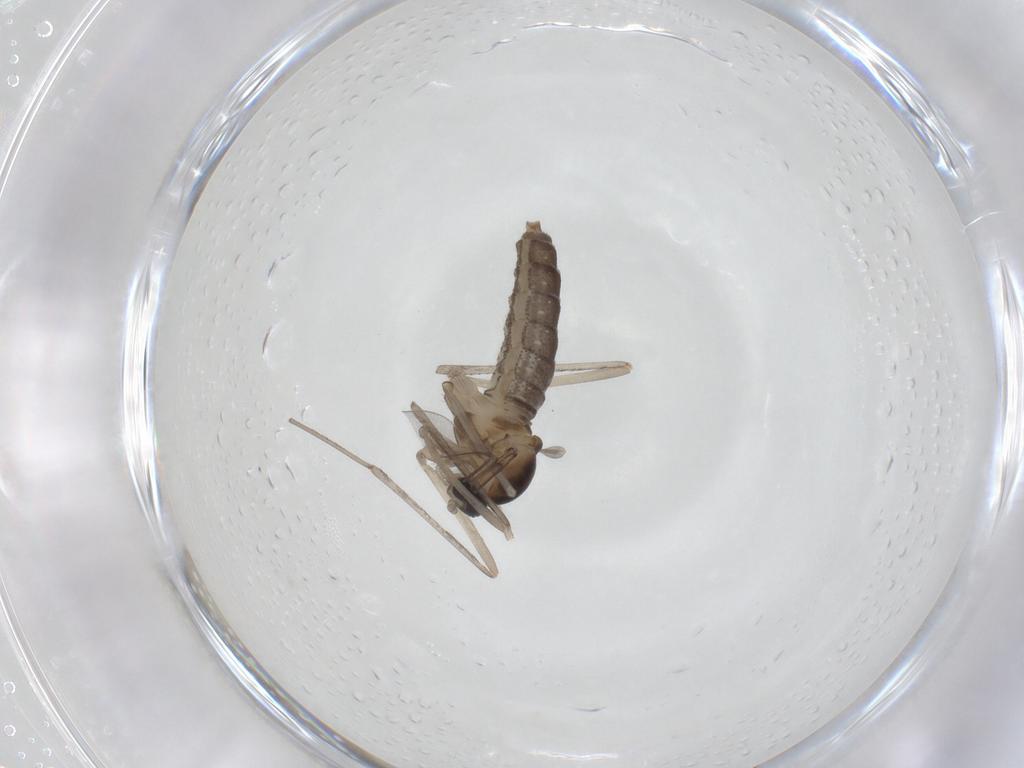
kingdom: Animalia
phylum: Arthropoda
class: Insecta
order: Diptera
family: Cecidomyiidae
